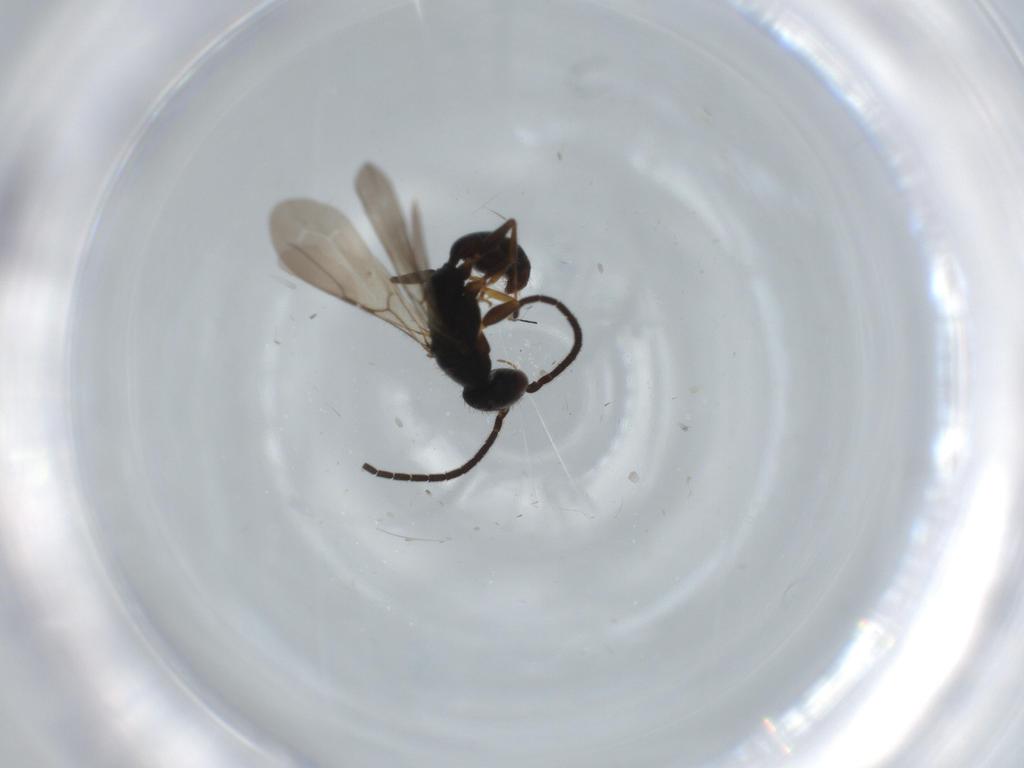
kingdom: Animalia
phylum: Arthropoda
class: Insecta
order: Hymenoptera
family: Bethylidae
